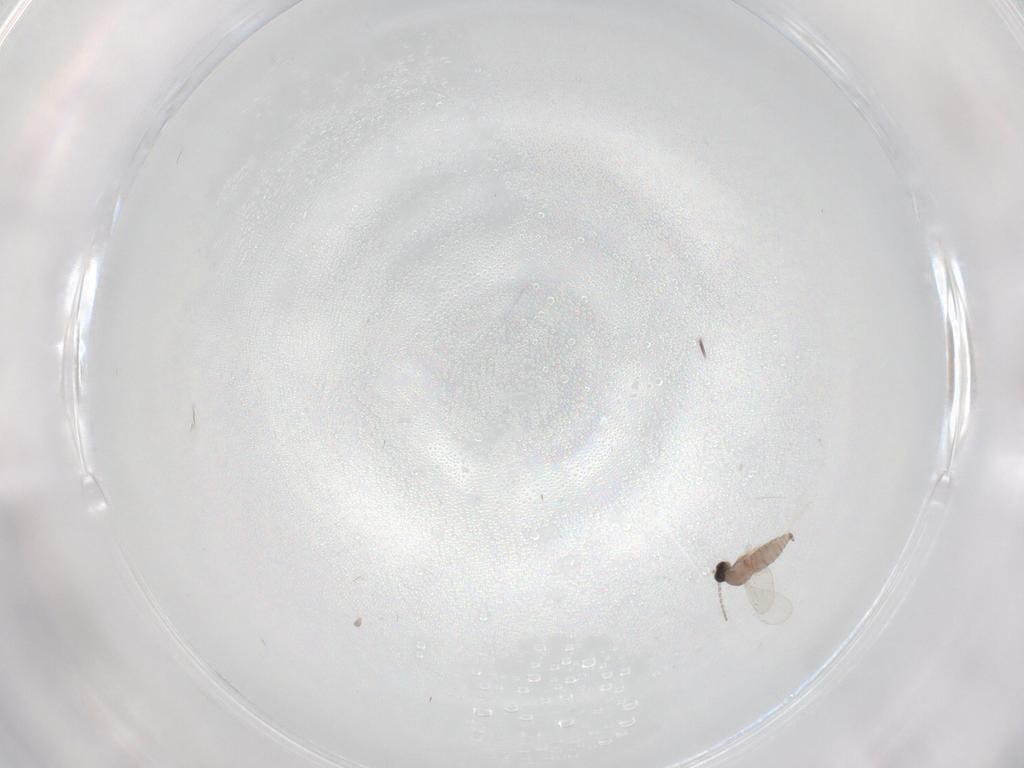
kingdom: Animalia
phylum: Arthropoda
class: Insecta
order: Diptera
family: Cecidomyiidae
